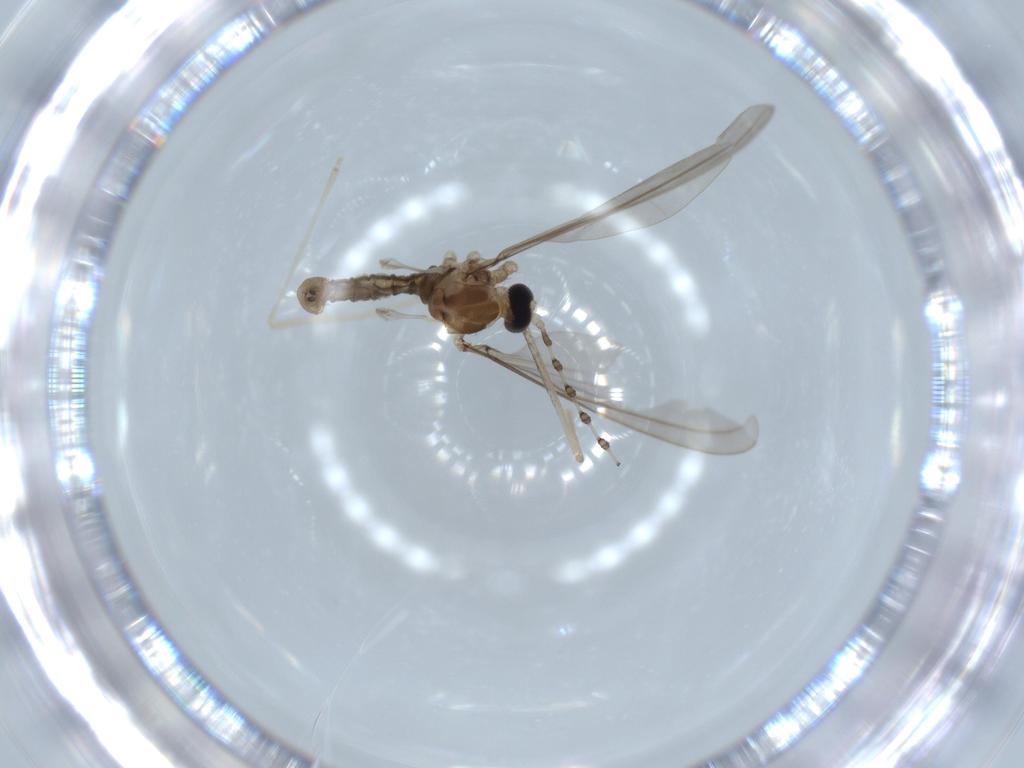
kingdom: Animalia
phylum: Arthropoda
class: Insecta
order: Diptera
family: Cecidomyiidae
